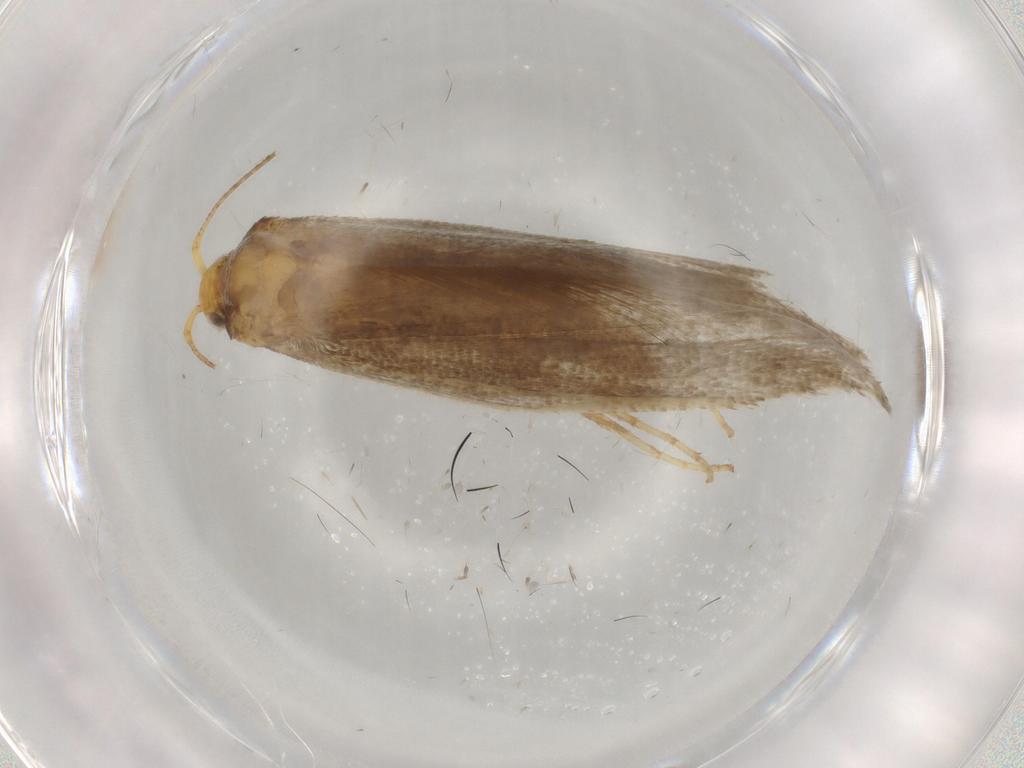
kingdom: Animalia
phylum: Arthropoda
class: Insecta
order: Lepidoptera
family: Argyresthiidae
